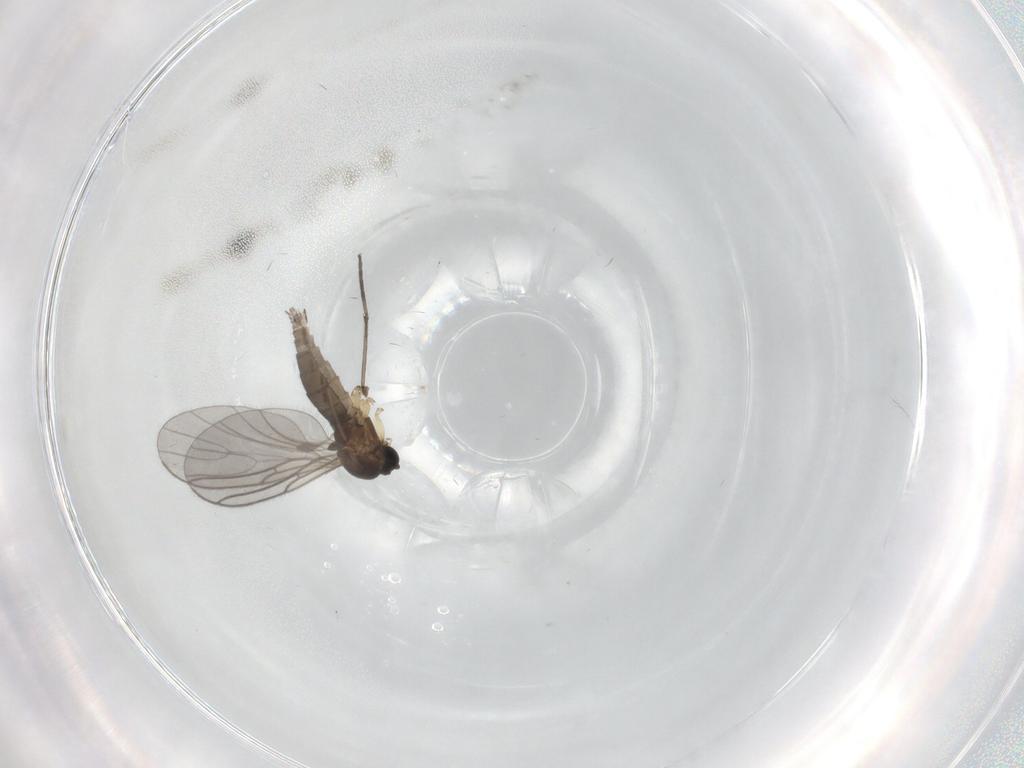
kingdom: Animalia
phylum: Arthropoda
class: Insecta
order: Diptera
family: Sciaridae
